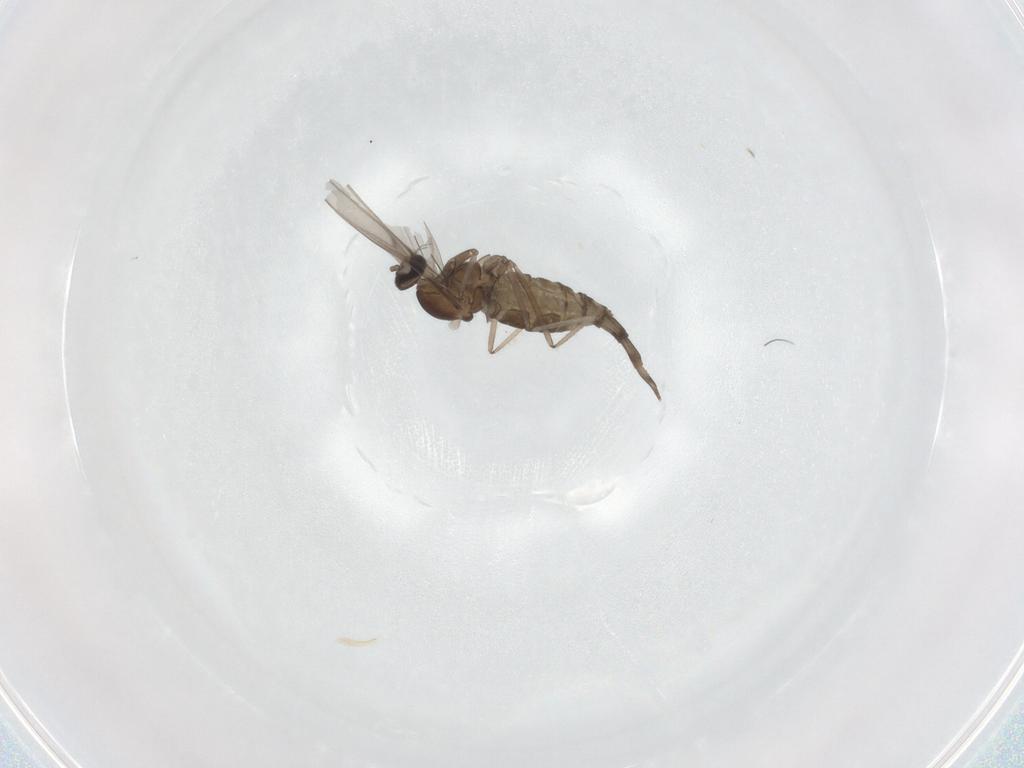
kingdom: Animalia
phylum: Arthropoda
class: Insecta
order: Diptera
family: Cecidomyiidae
